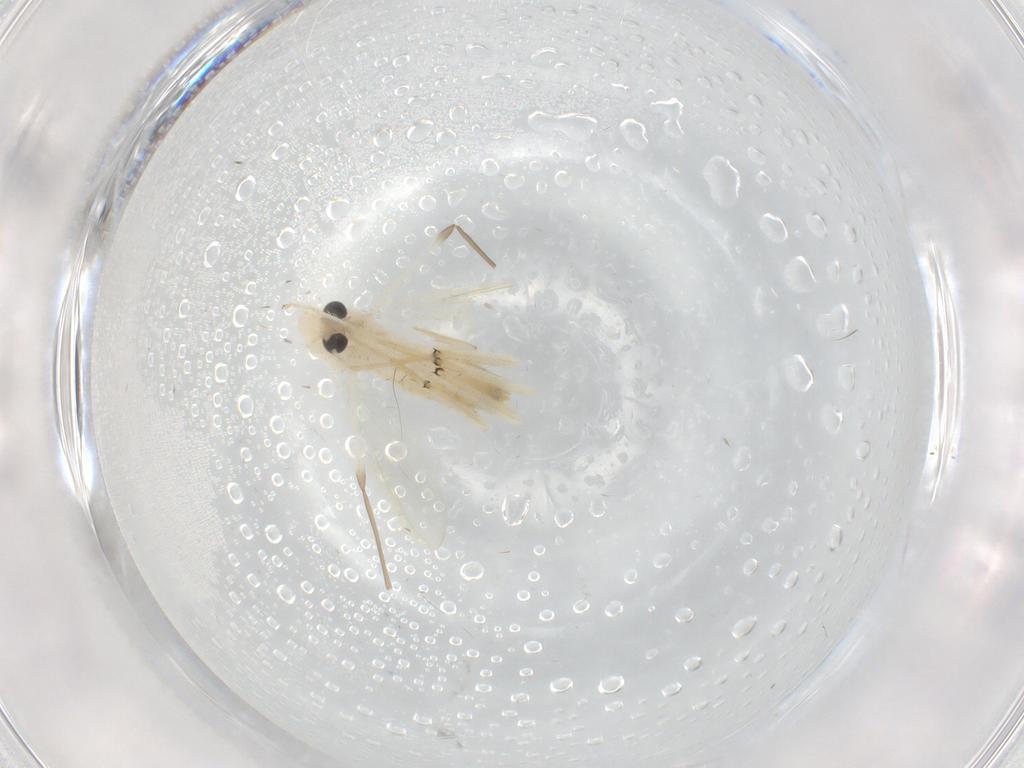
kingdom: Animalia
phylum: Arthropoda
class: Insecta
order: Diptera
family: Chironomidae
